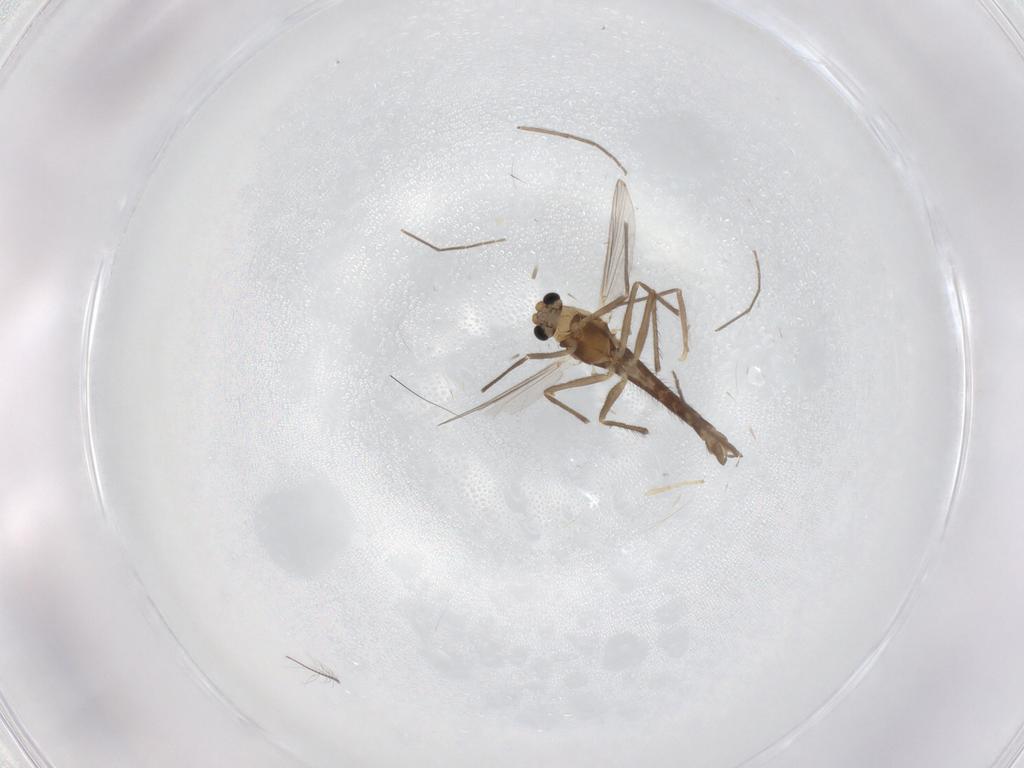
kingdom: Animalia
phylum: Arthropoda
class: Insecta
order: Diptera
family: Chironomidae
